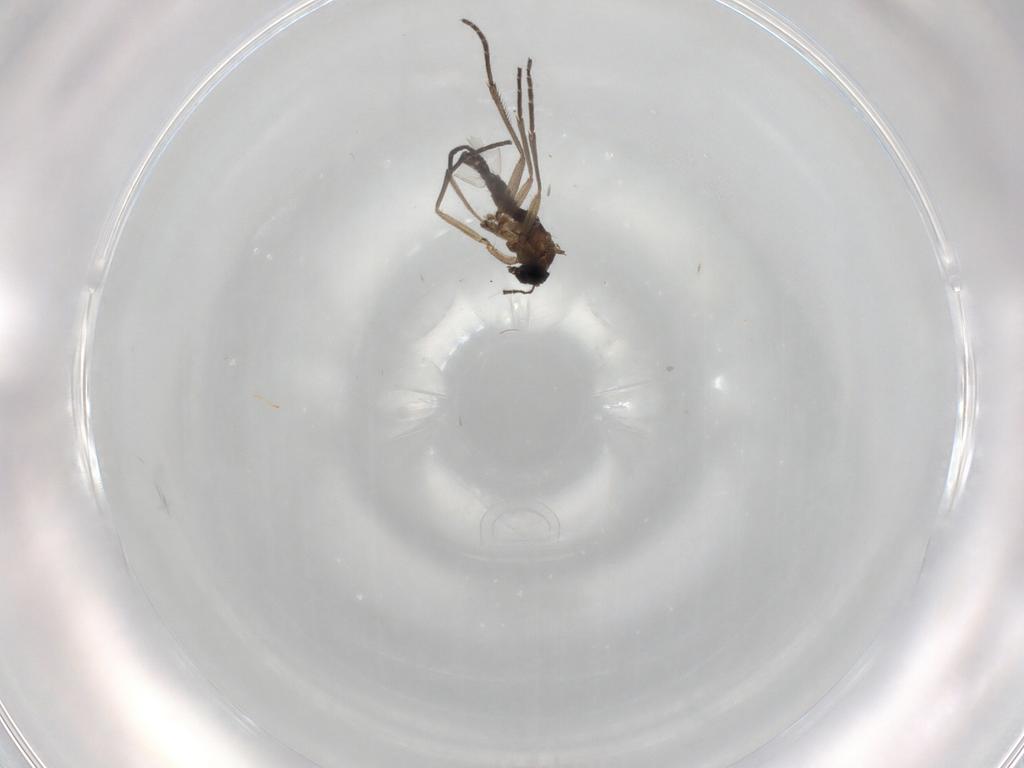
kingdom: Animalia
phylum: Arthropoda
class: Insecta
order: Diptera
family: Sciaridae
